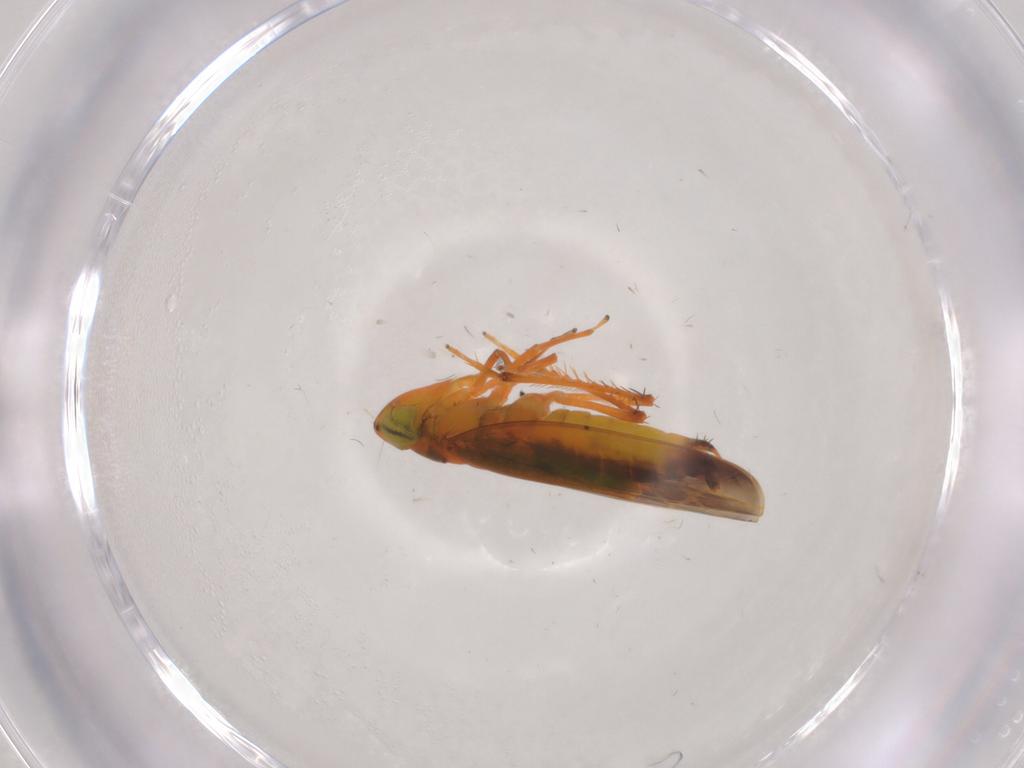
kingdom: Animalia
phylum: Arthropoda
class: Insecta
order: Hemiptera
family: Cicadellidae
